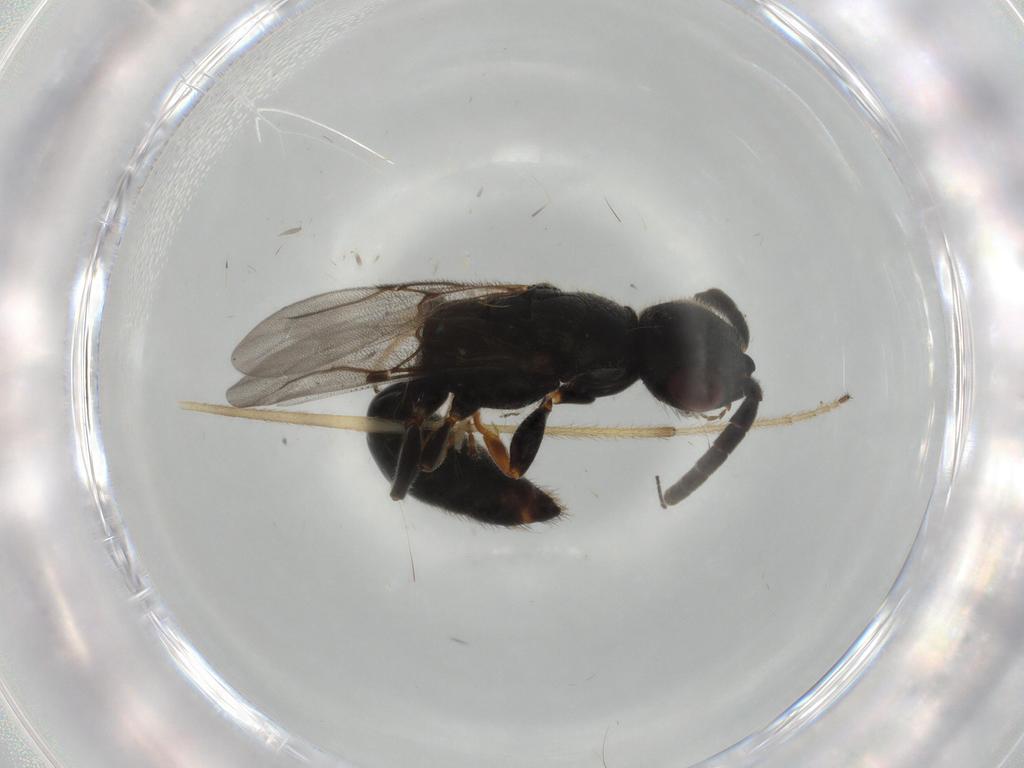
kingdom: Animalia
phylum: Arthropoda
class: Insecta
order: Hymenoptera
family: Bethylidae
